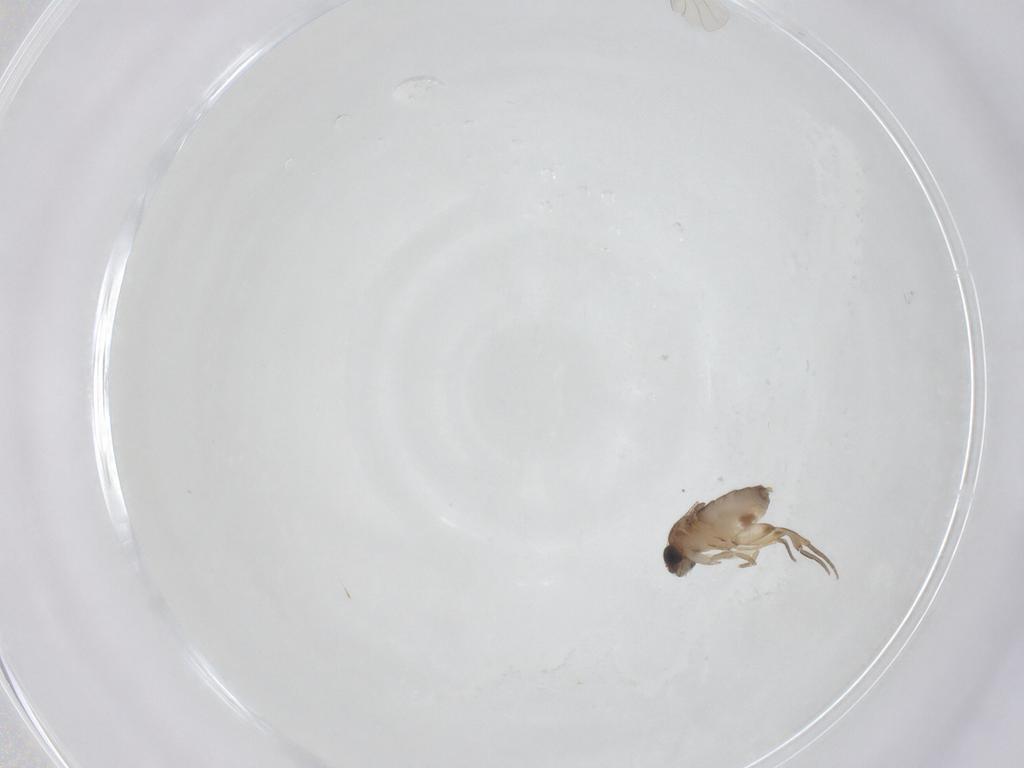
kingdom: Animalia
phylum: Arthropoda
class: Insecta
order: Diptera
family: Phoridae
